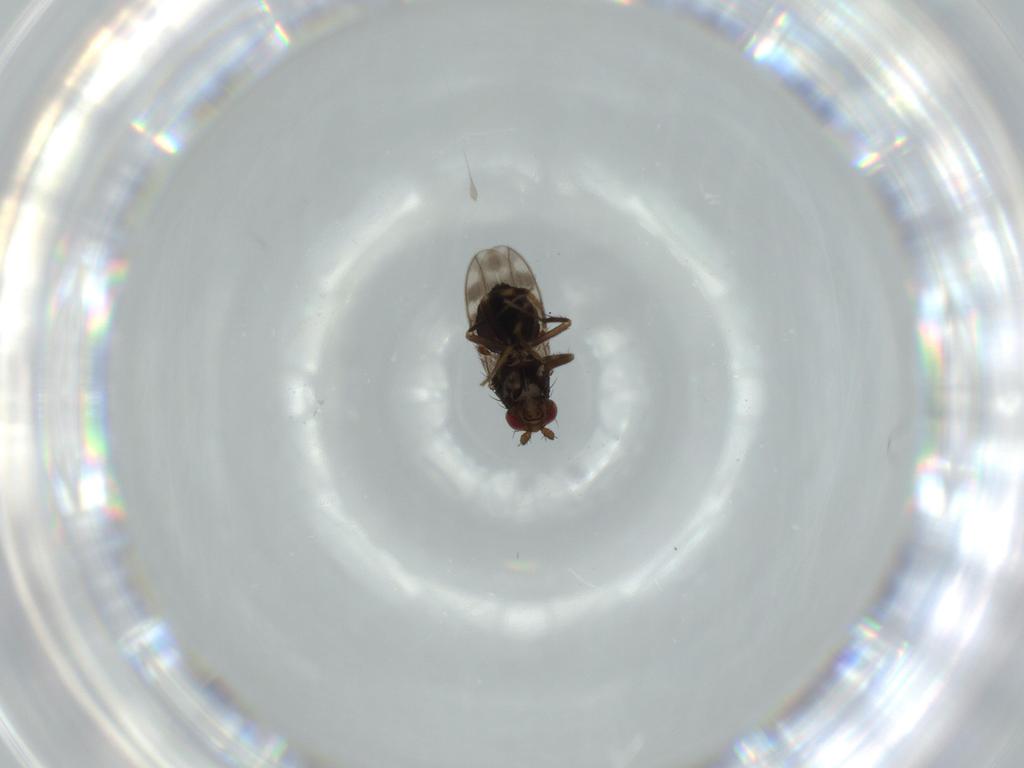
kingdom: Animalia
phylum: Arthropoda
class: Insecta
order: Diptera
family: Sphaeroceridae
